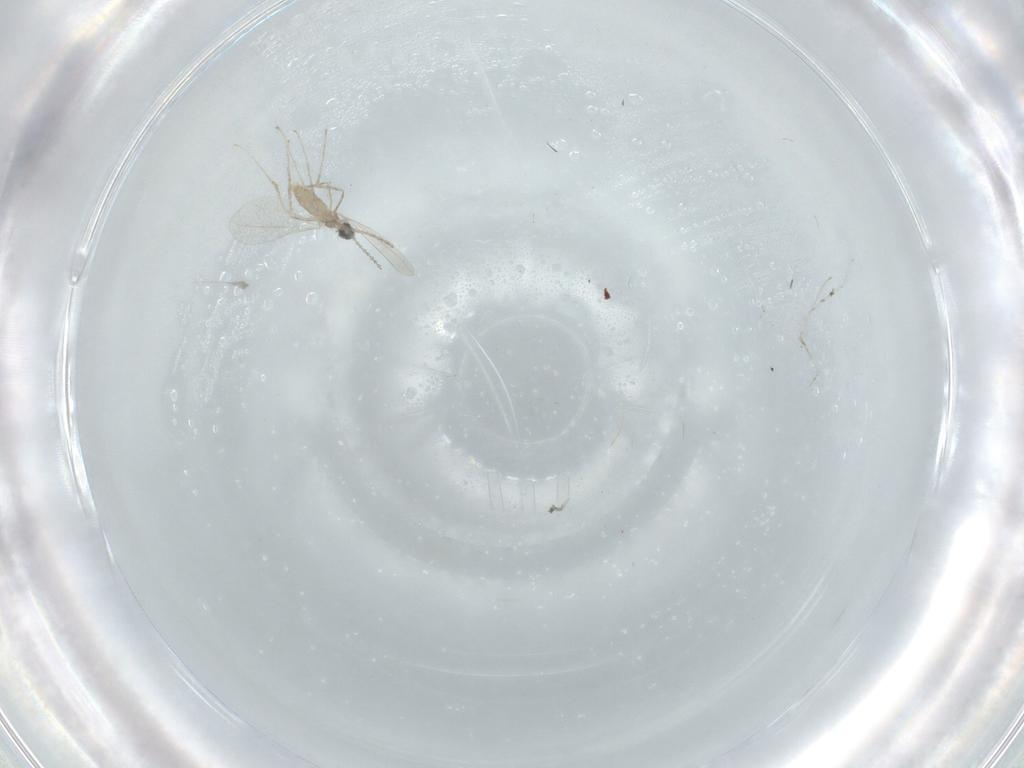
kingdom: Animalia
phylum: Arthropoda
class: Insecta
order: Diptera
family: Cecidomyiidae
